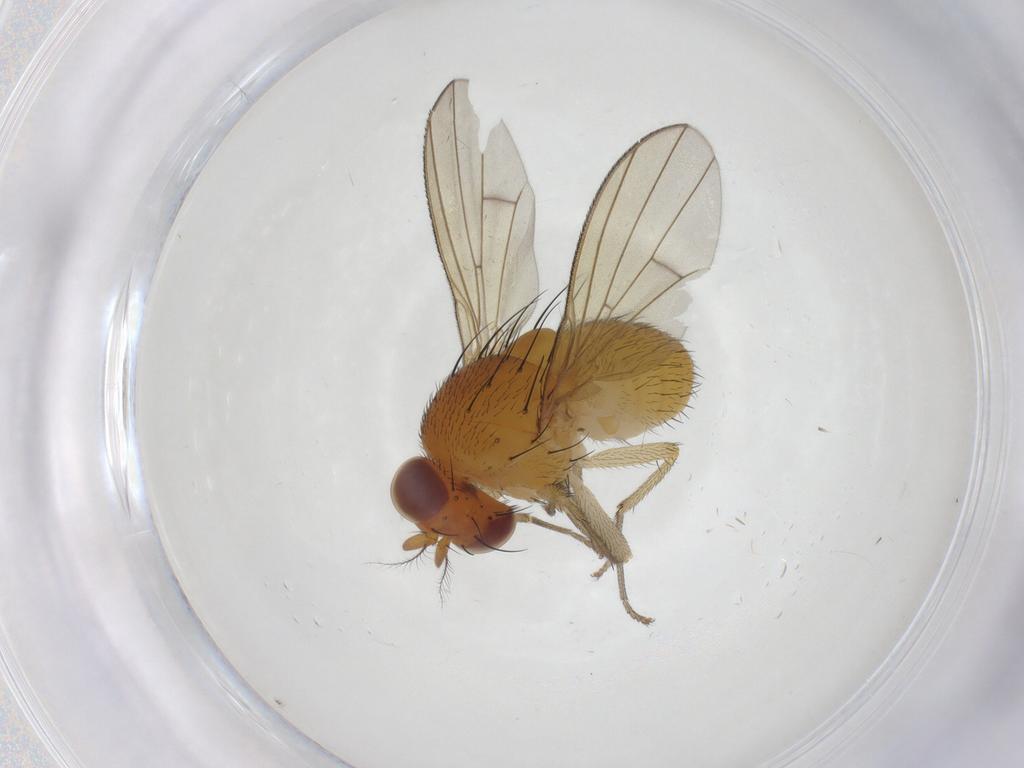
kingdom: Animalia
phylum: Arthropoda
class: Insecta
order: Diptera
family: Lauxaniidae
